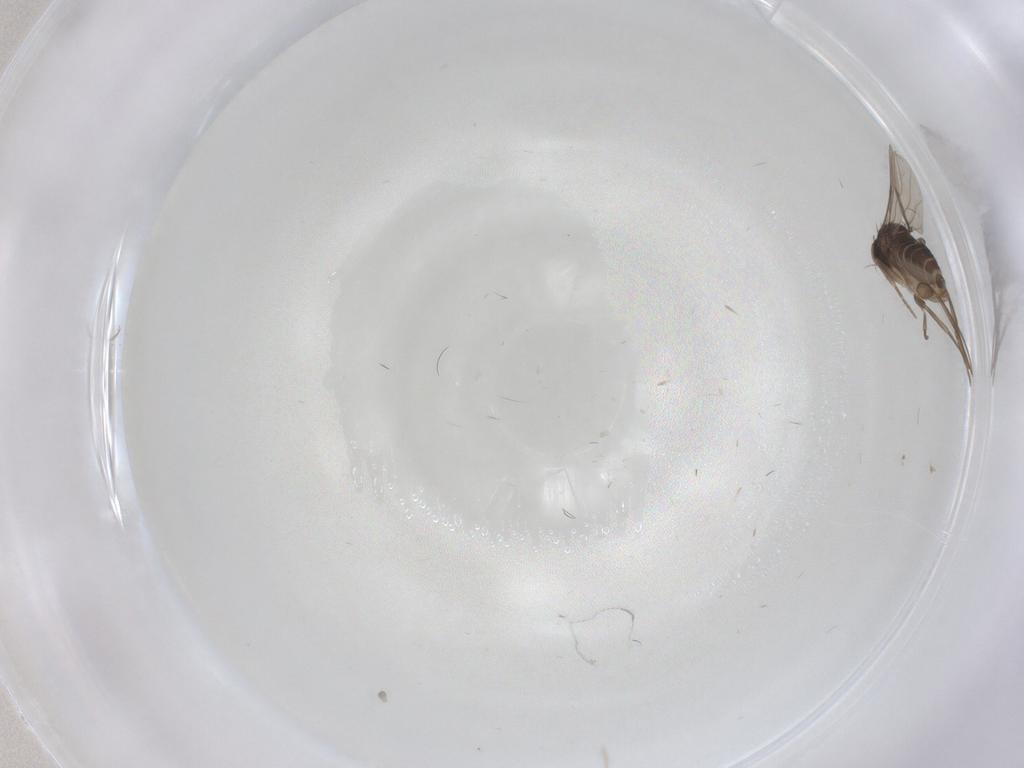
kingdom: Animalia
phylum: Arthropoda
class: Insecta
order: Diptera
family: Phoridae
